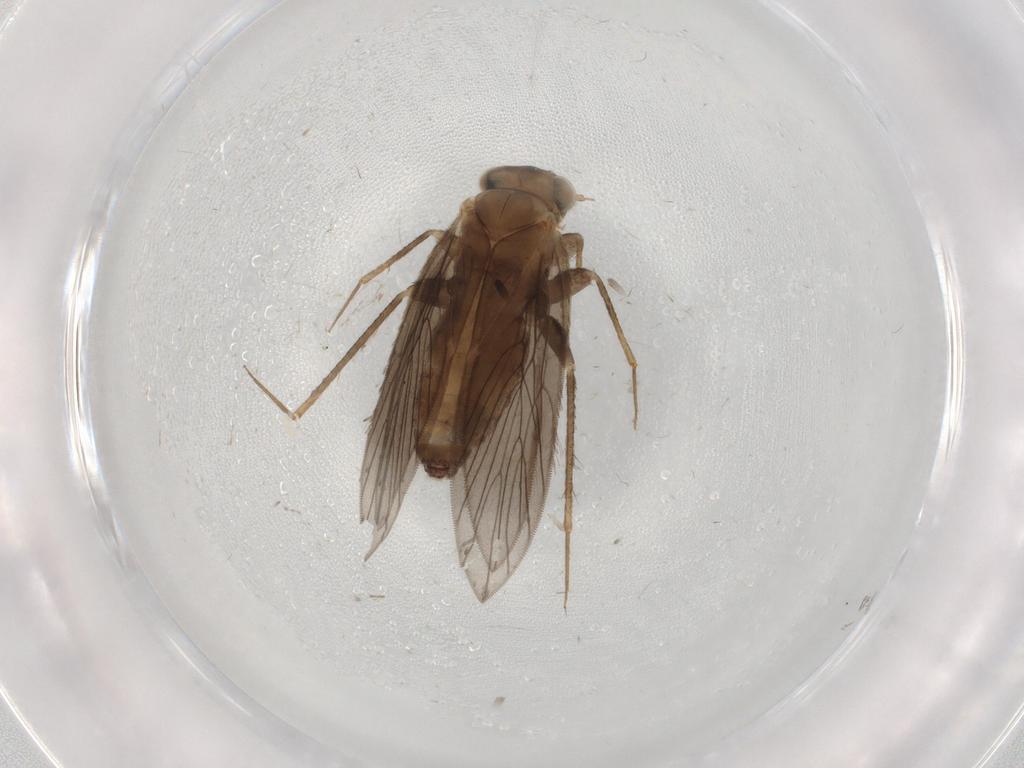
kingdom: Animalia
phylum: Arthropoda
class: Insecta
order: Psocodea
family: Lepidopsocidae
